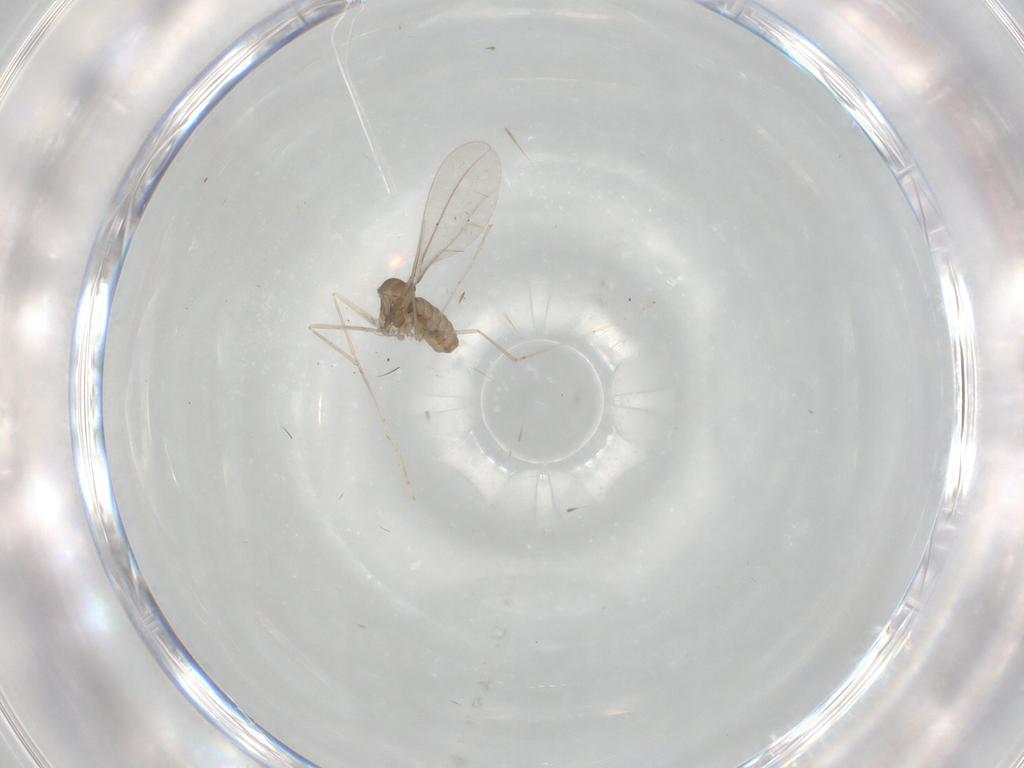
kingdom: Animalia
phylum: Arthropoda
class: Insecta
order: Diptera
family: Cecidomyiidae
